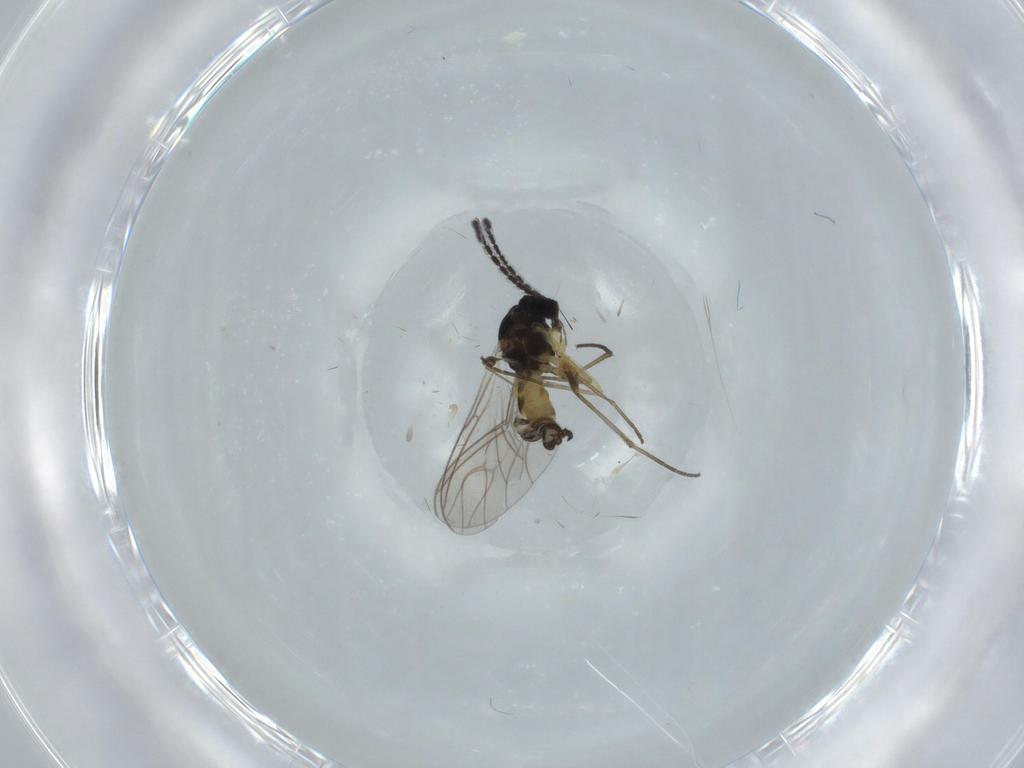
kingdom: Animalia
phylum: Arthropoda
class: Insecta
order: Diptera
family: Sciaridae
